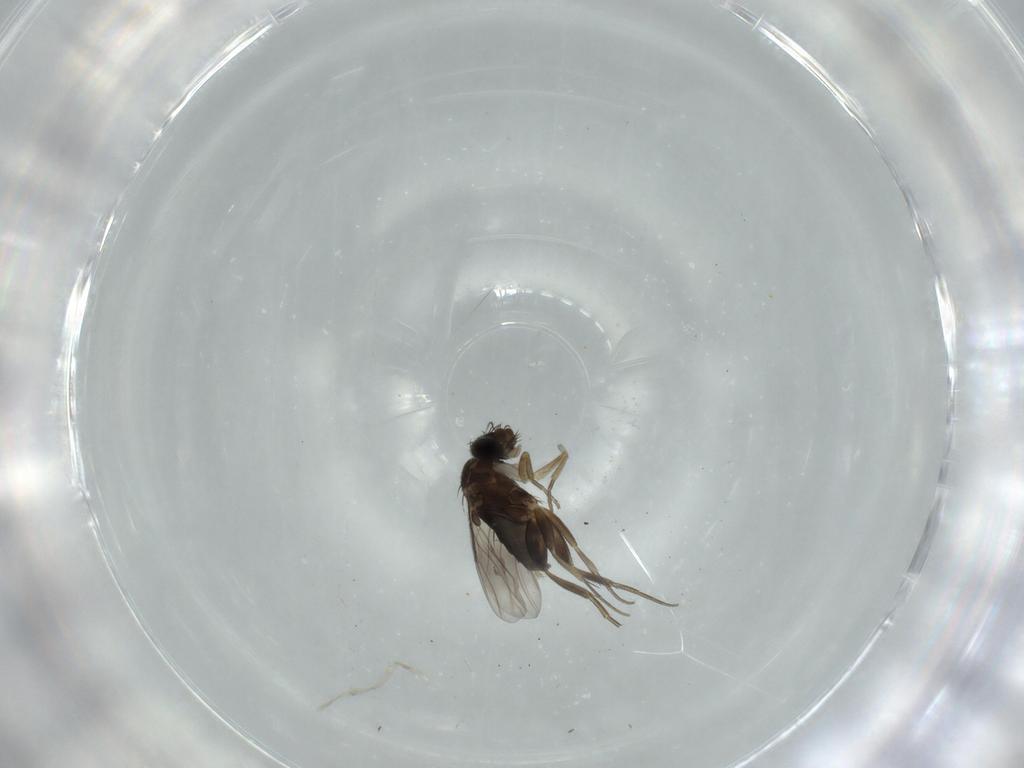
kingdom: Animalia
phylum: Arthropoda
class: Insecta
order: Diptera
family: Phoridae
